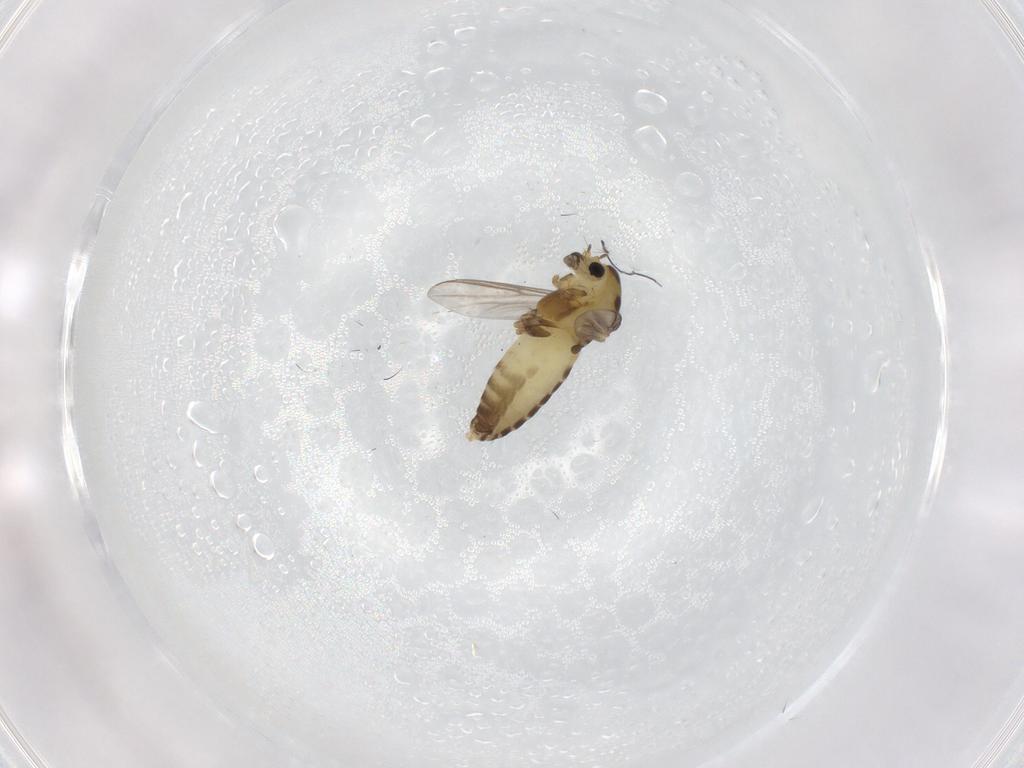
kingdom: Animalia
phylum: Arthropoda
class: Insecta
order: Diptera
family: Chironomidae
